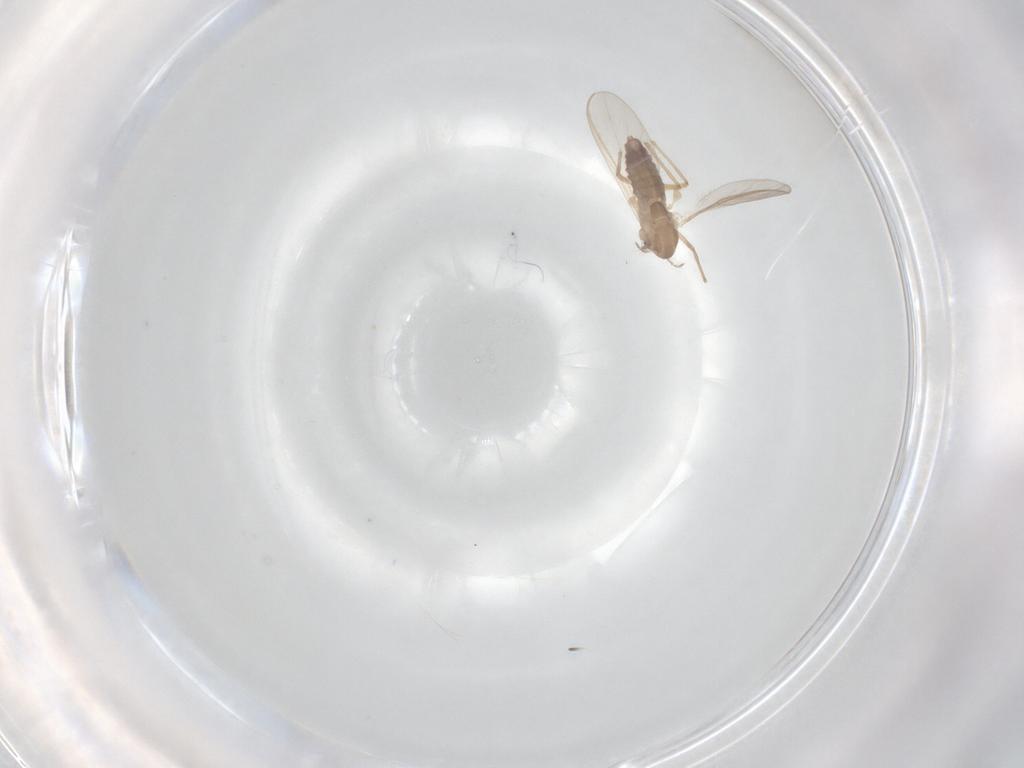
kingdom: Animalia
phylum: Arthropoda
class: Insecta
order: Diptera
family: Chironomidae
